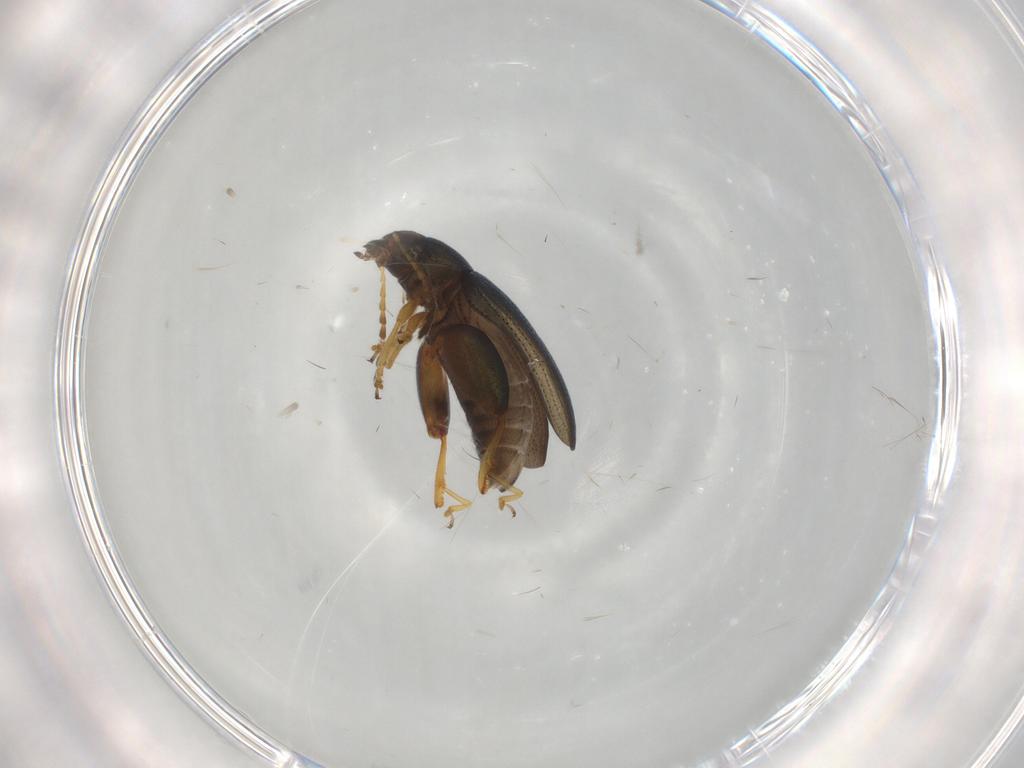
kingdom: Animalia
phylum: Arthropoda
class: Insecta
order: Coleoptera
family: Chrysomelidae
